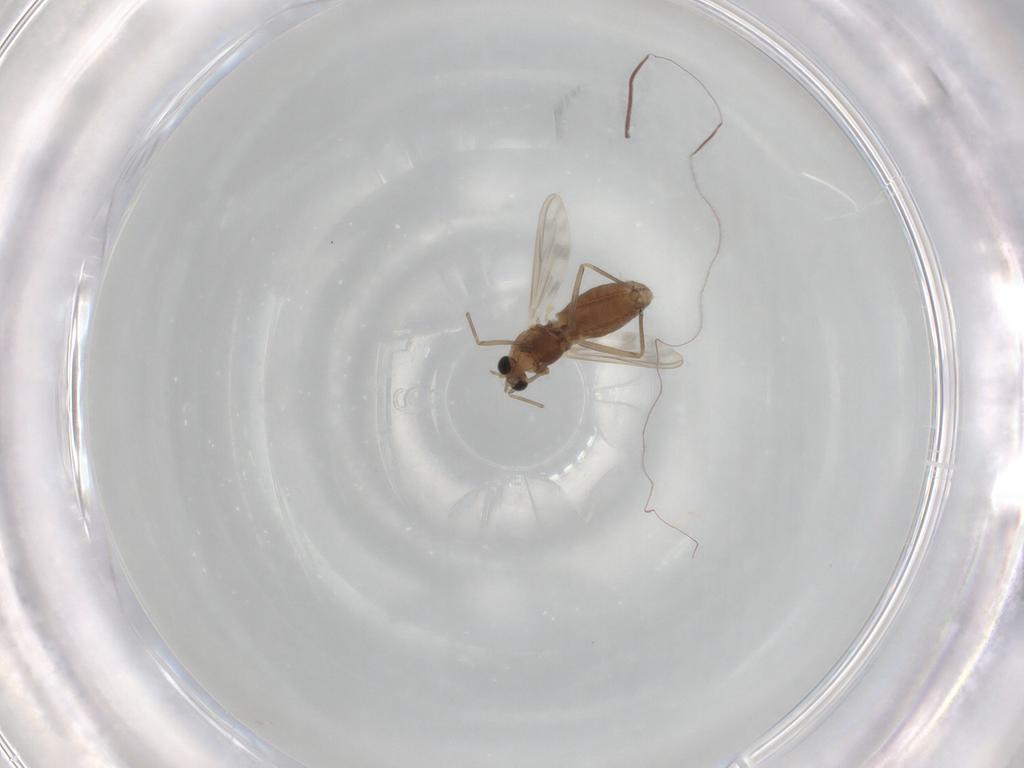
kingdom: Animalia
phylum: Arthropoda
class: Insecta
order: Diptera
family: Chironomidae
